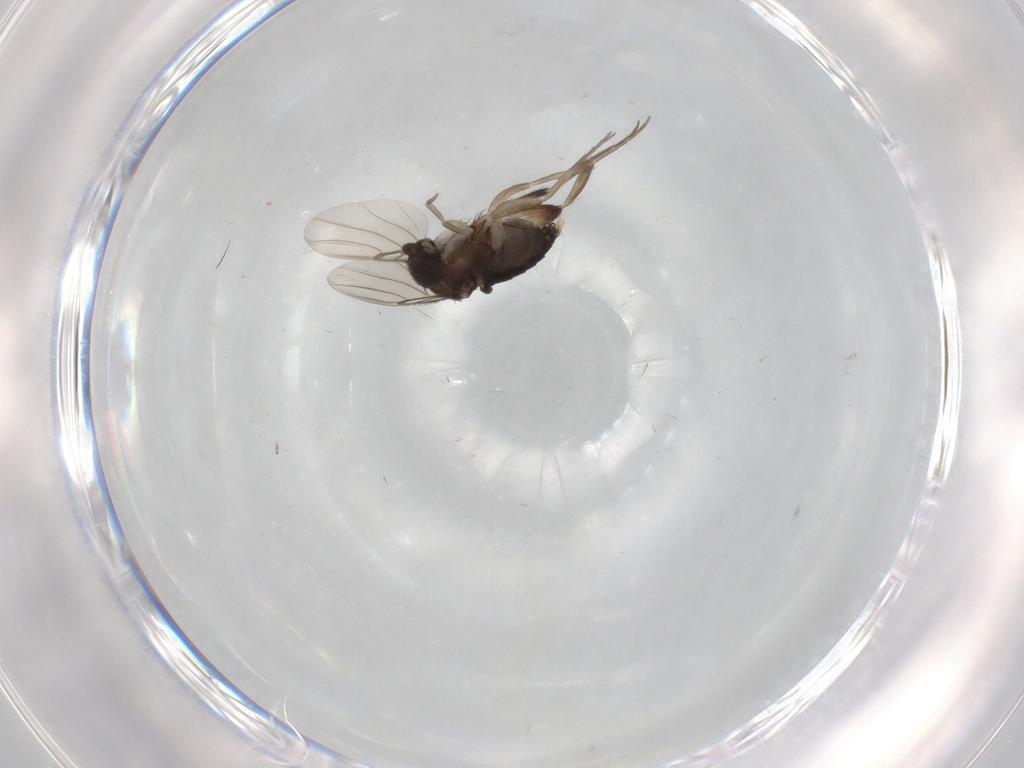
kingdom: Animalia
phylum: Arthropoda
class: Insecta
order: Diptera
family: Phoridae
